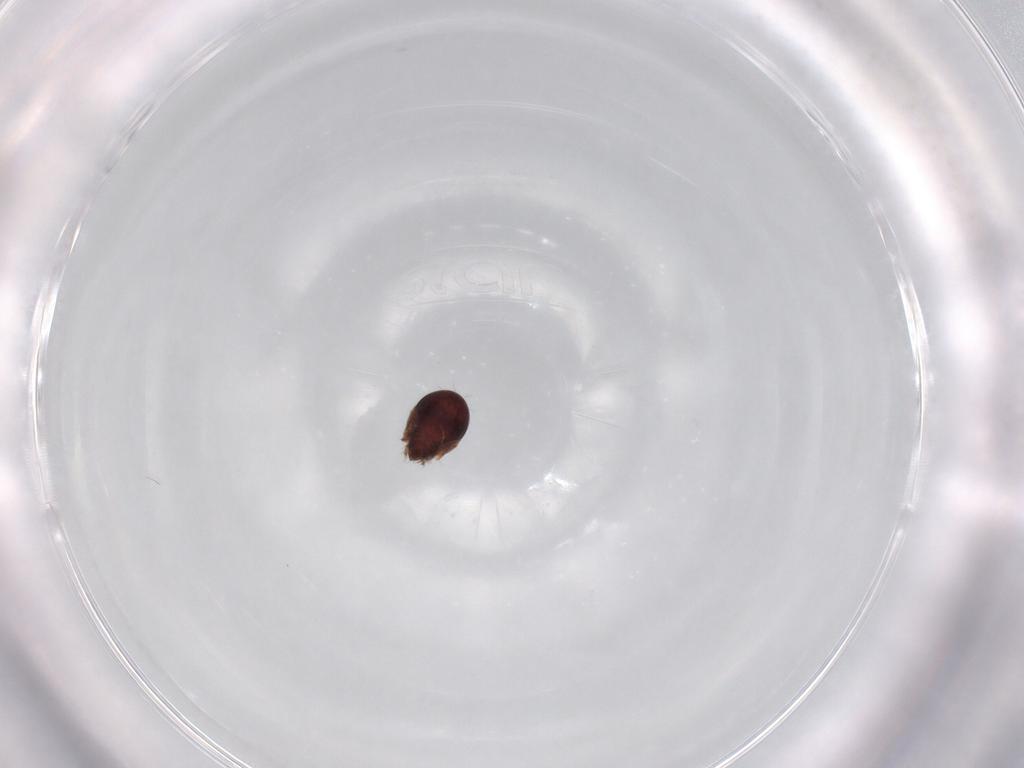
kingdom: Animalia
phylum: Arthropoda
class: Arachnida
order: Sarcoptiformes
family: Ceratozetidae
